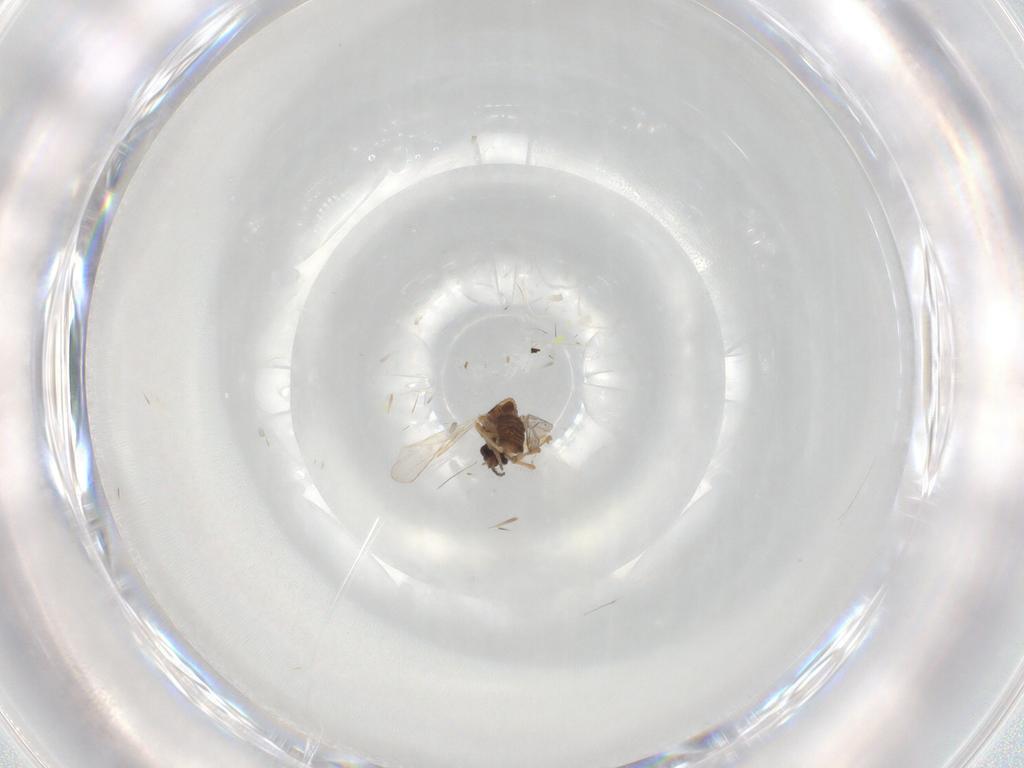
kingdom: Animalia
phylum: Arthropoda
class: Insecta
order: Diptera
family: Ceratopogonidae
